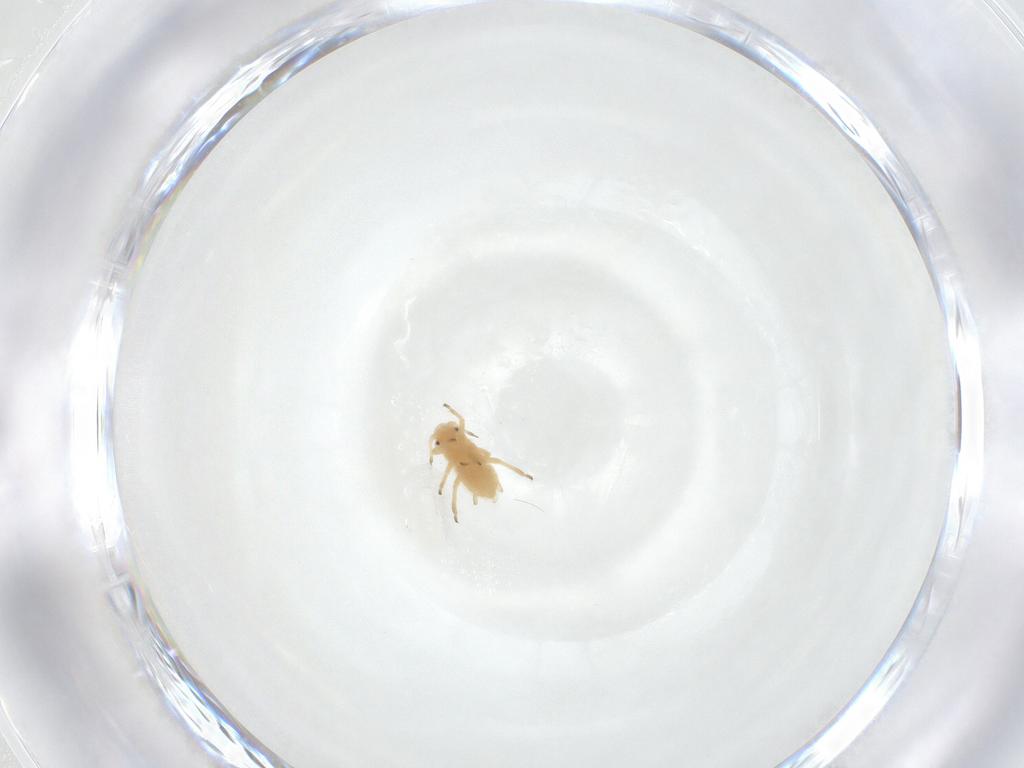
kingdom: Animalia
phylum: Arthropoda
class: Insecta
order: Hemiptera
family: Aphididae
